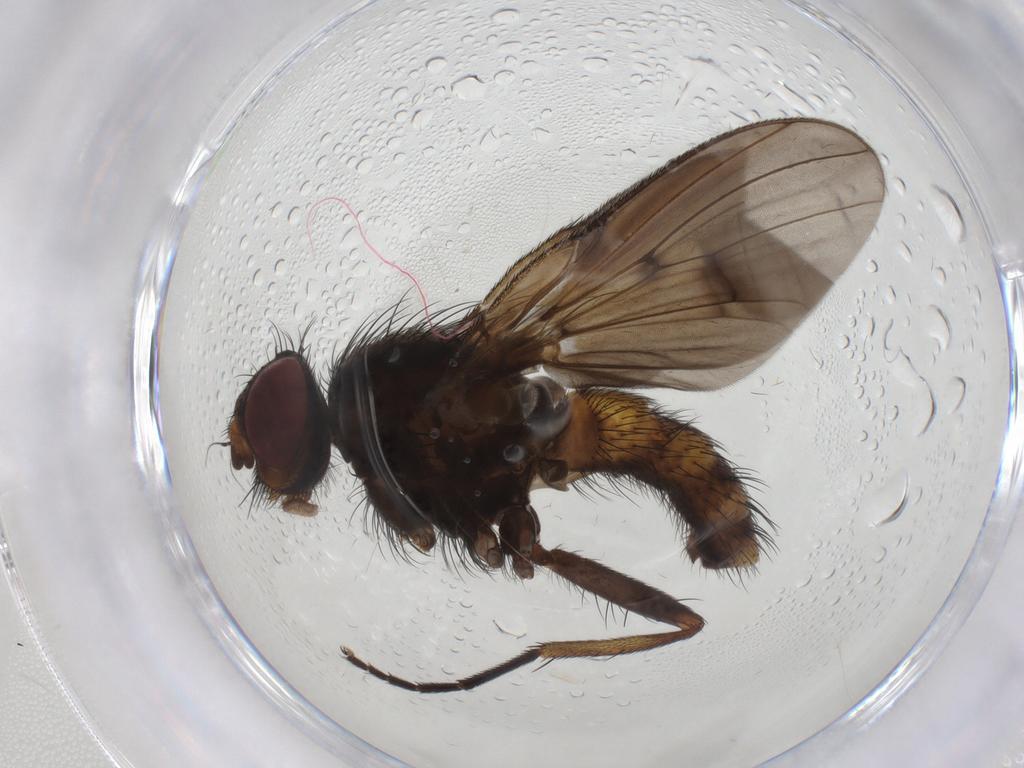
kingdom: Animalia
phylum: Arthropoda
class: Insecta
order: Diptera
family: Muscidae
